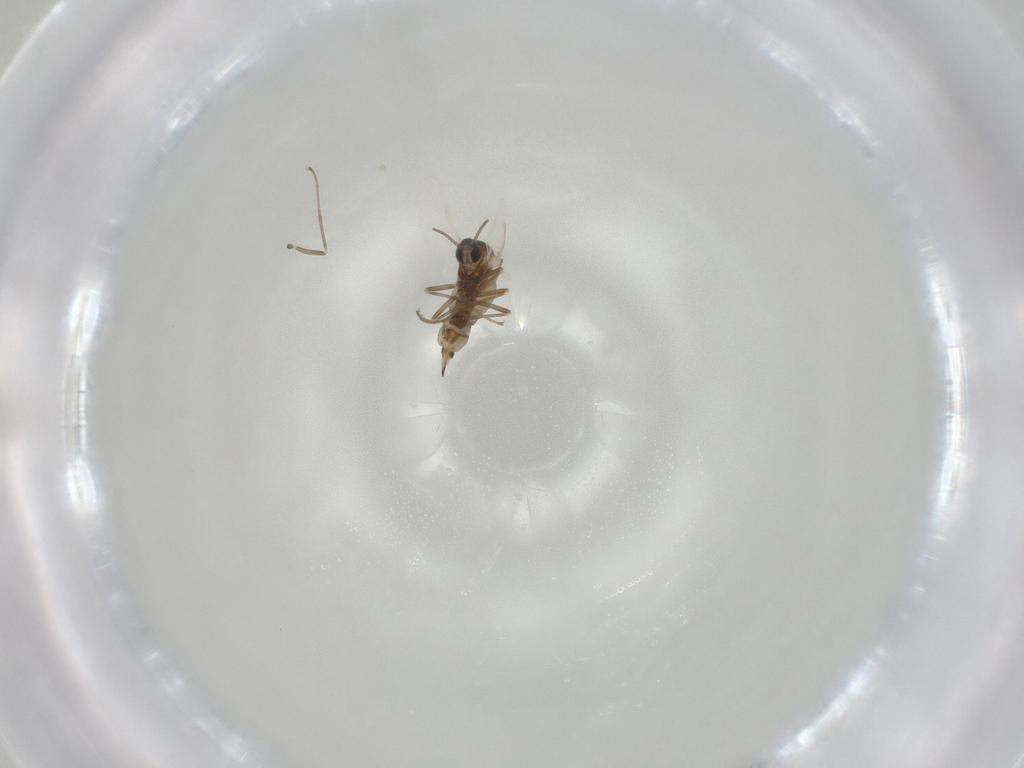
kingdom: Animalia
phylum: Arthropoda
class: Insecta
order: Diptera
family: Cecidomyiidae
